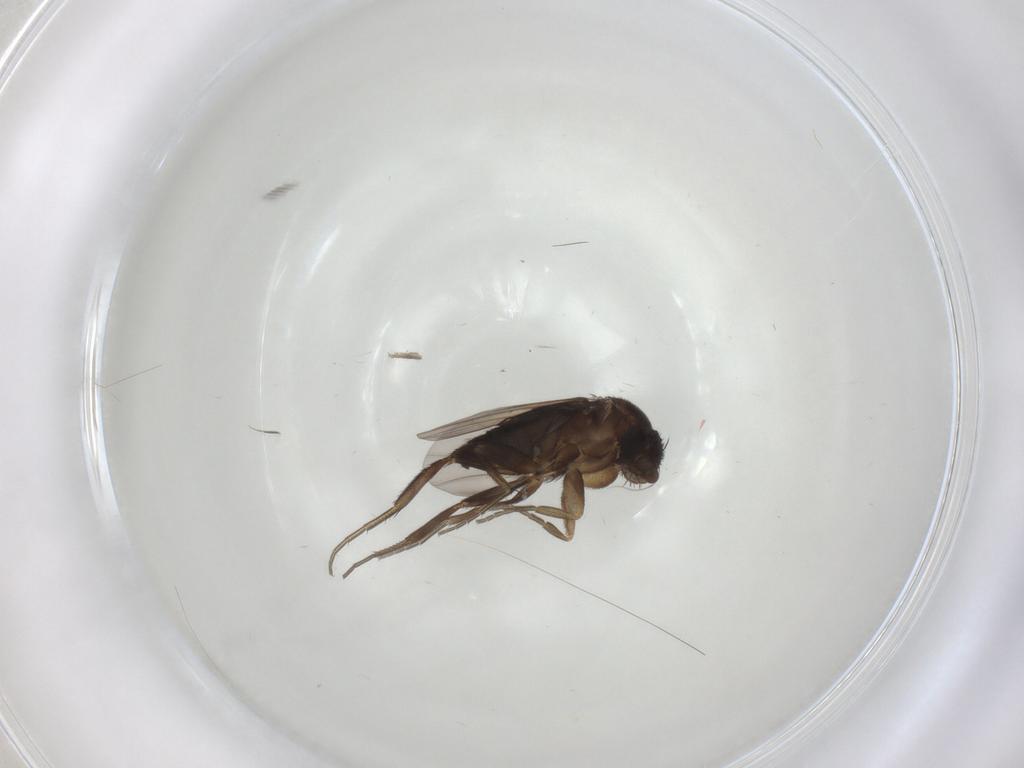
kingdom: Animalia
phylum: Arthropoda
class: Insecta
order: Diptera
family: Phoridae
